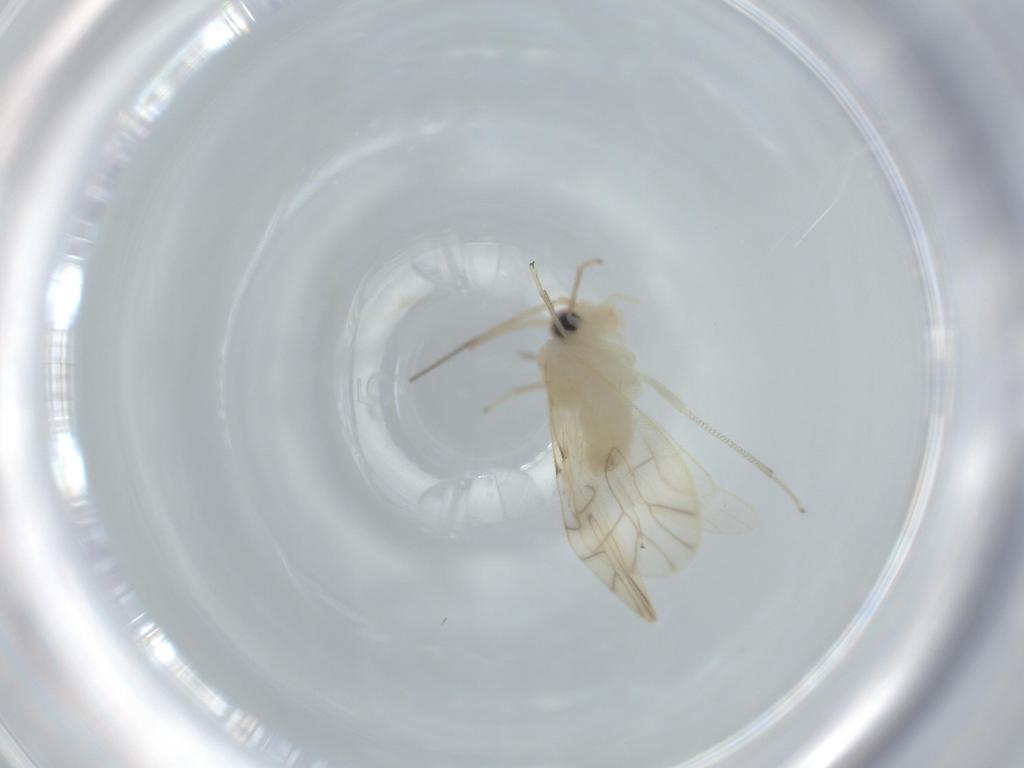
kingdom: Animalia
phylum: Arthropoda
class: Insecta
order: Psocodea
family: Caeciliusidae
